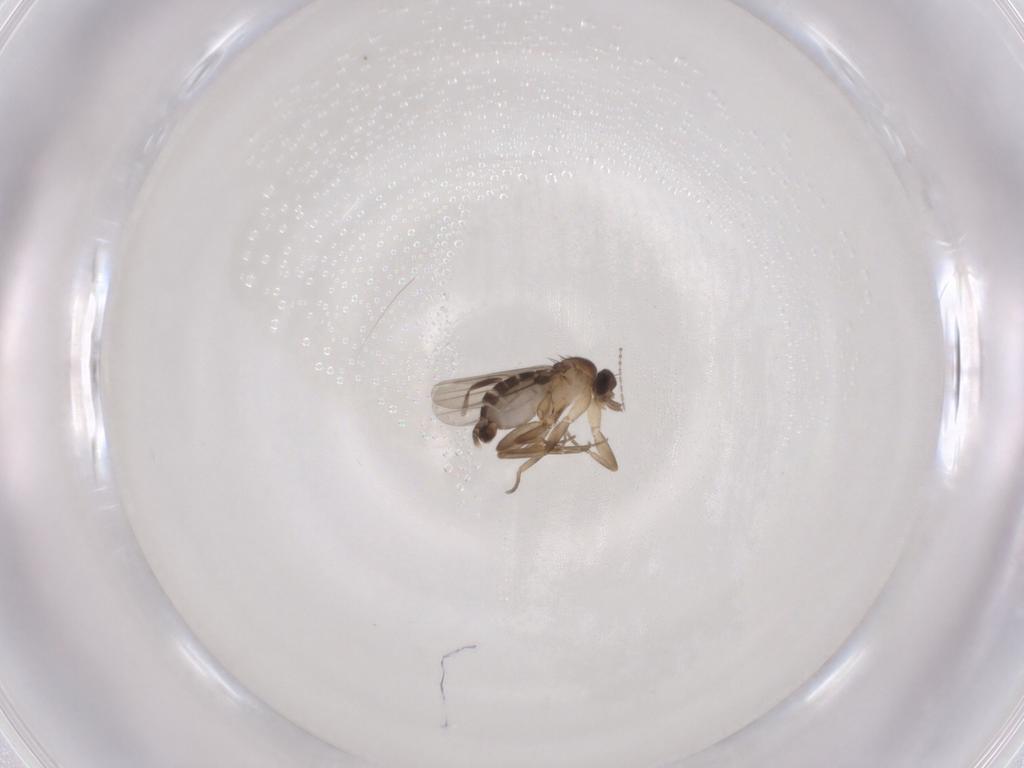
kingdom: Animalia
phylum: Arthropoda
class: Insecta
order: Diptera
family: Phoridae
